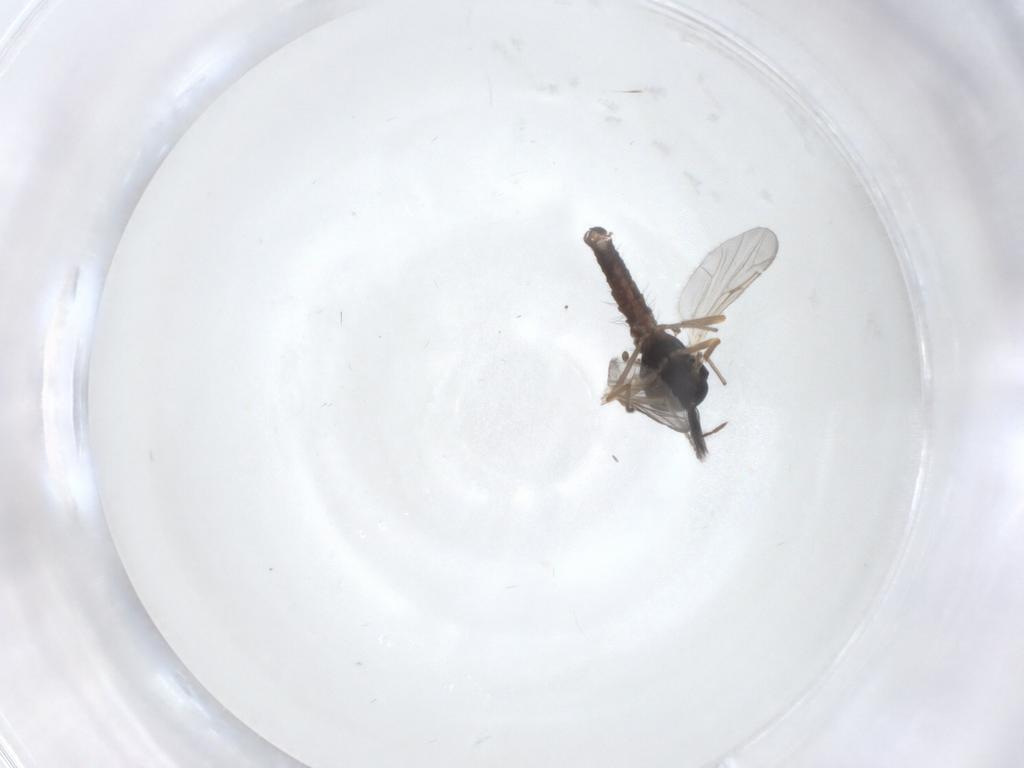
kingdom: Animalia
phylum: Arthropoda
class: Insecta
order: Diptera
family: Ceratopogonidae
